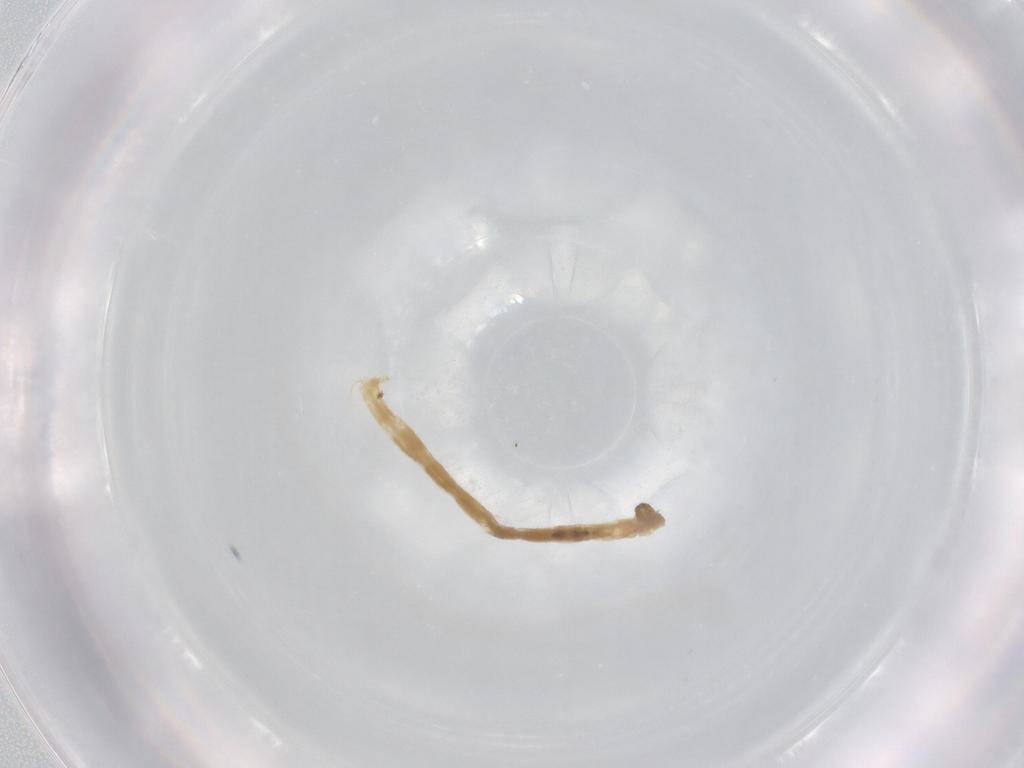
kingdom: Animalia
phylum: Arthropoda
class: Insecta
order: Diptera
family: Chironomidae
